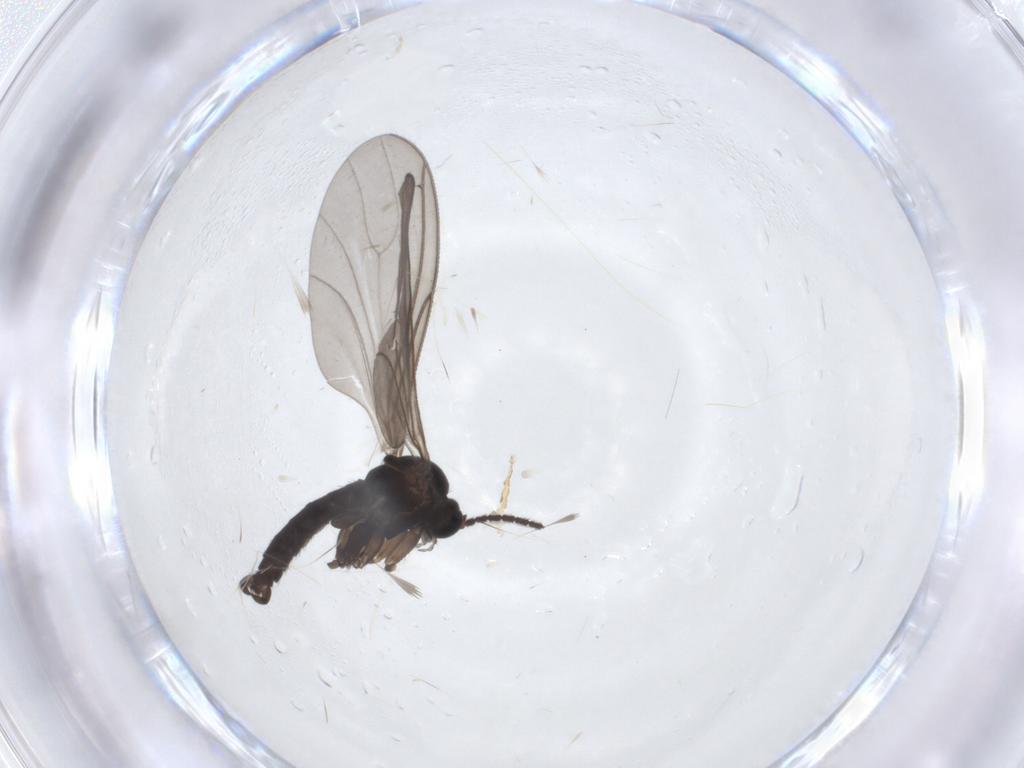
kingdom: Animalia
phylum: Arthropoda
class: Insecta
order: Diptera
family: Sciaridae
